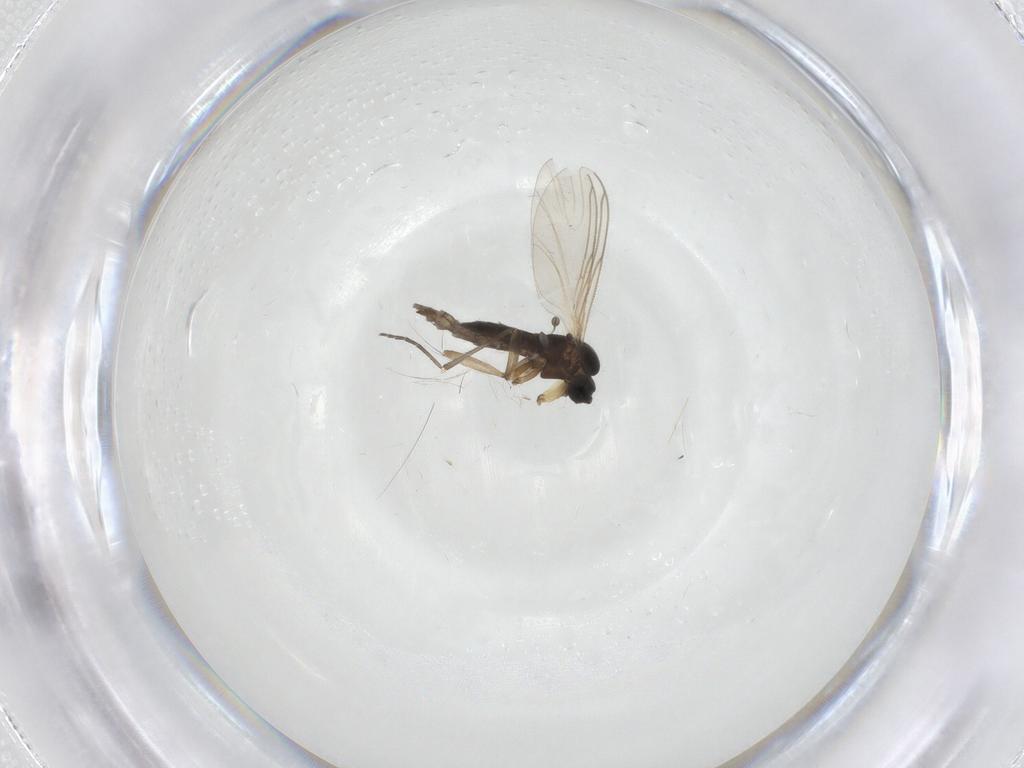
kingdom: Animalia
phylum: Arthropoda
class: Insecta
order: Diptera
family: Sciaridae
